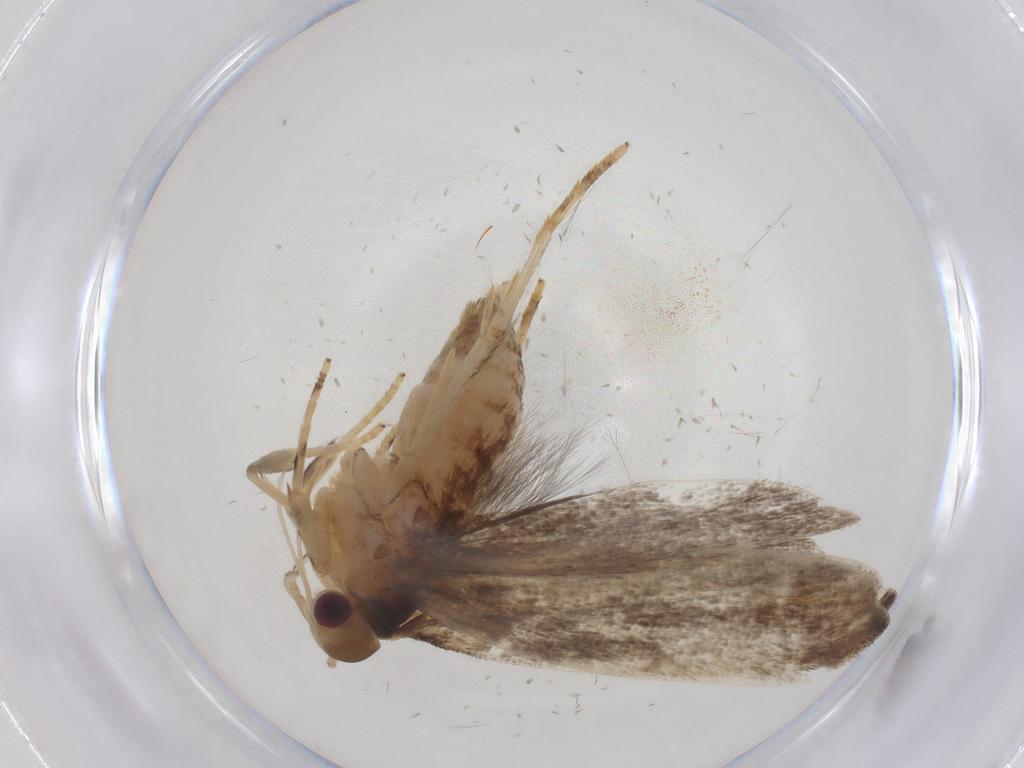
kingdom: Animalia
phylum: Arthropoda
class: Insecta
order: Lepidoptera
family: Gelechiidae
